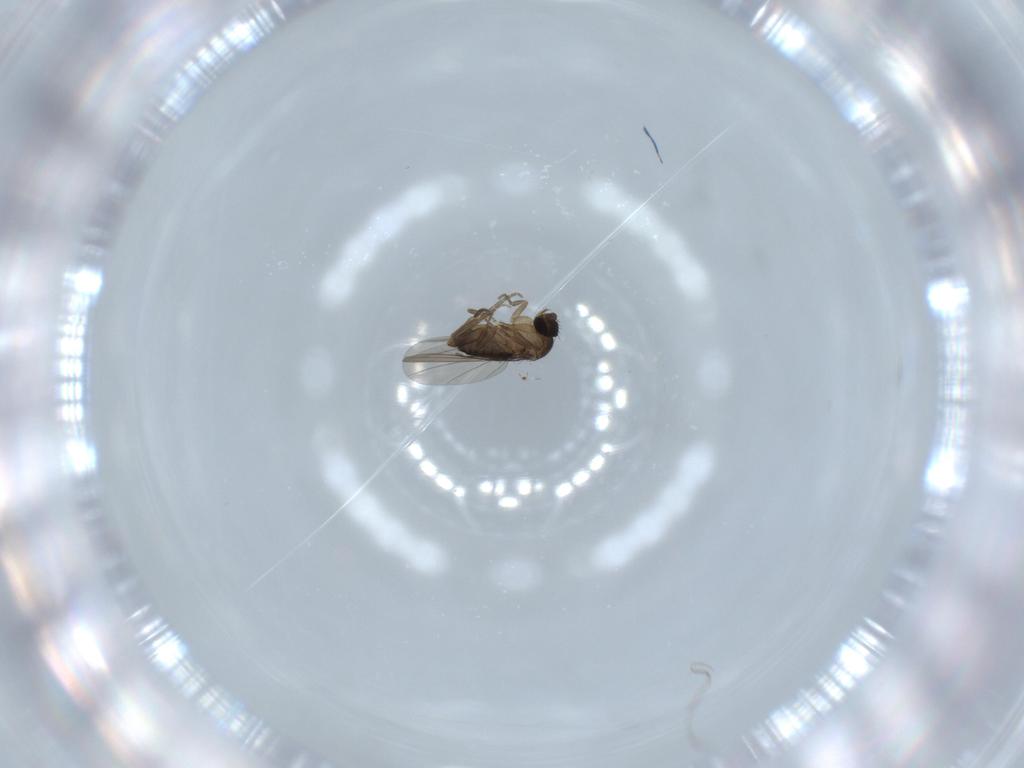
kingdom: Animalia
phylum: Arthropoda
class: Insecta
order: Diptera
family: Phoridae
